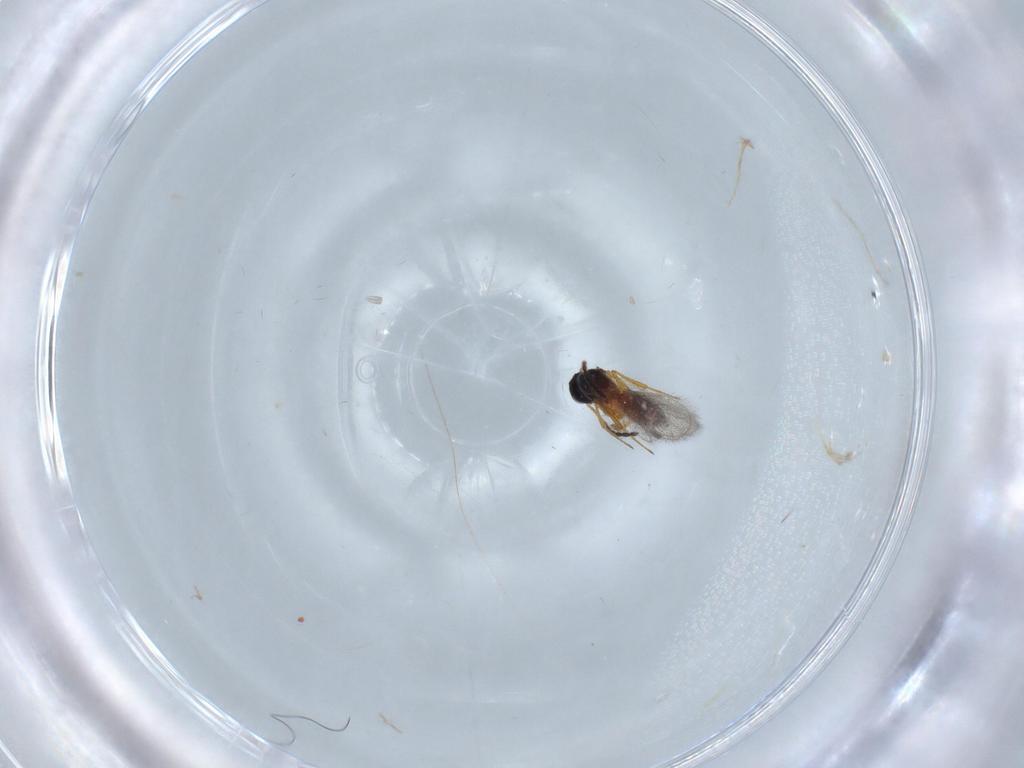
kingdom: Animalia
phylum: Arthropoda
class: Insecta
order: Hymenoptera
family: Figitidae
